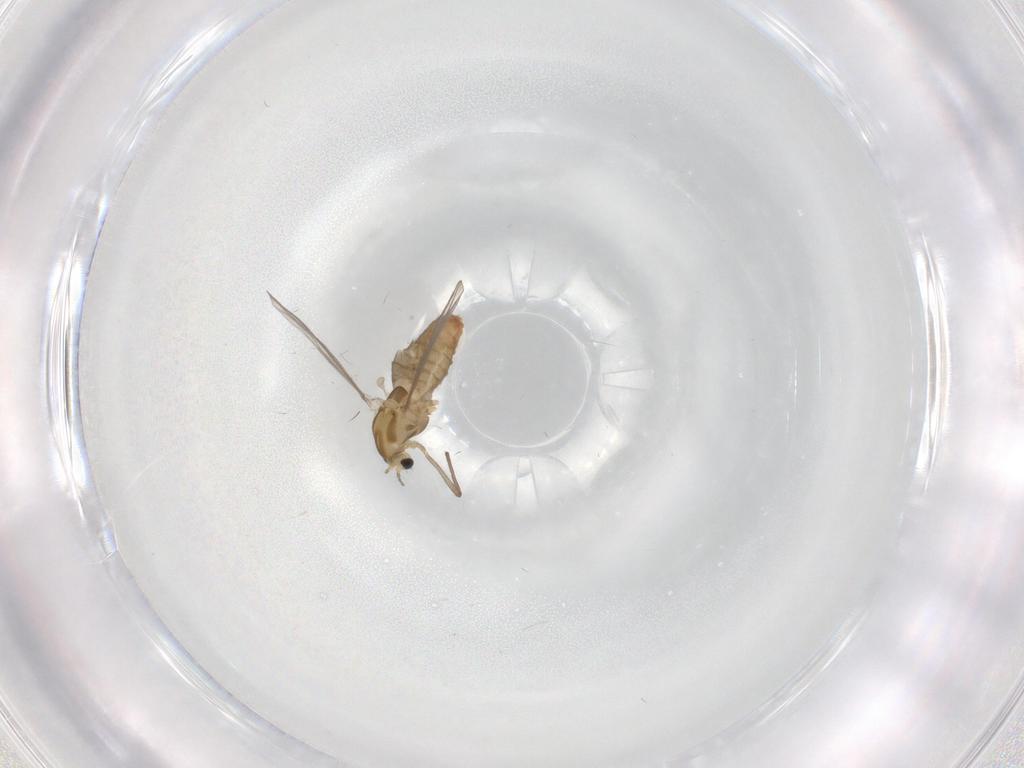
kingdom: Animalia
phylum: Arthropoda
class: Insecta
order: Diptera
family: Chironomidae
